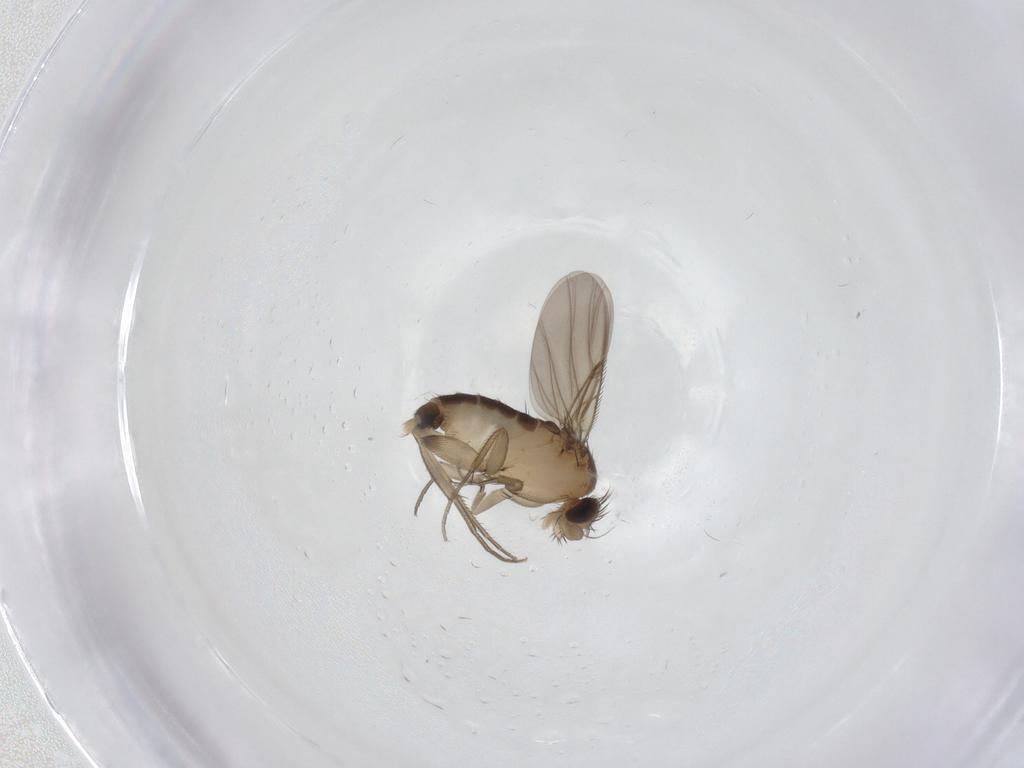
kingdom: Animalia
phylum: Arthropoda
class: Insecta
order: Diptera
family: Phoridae
